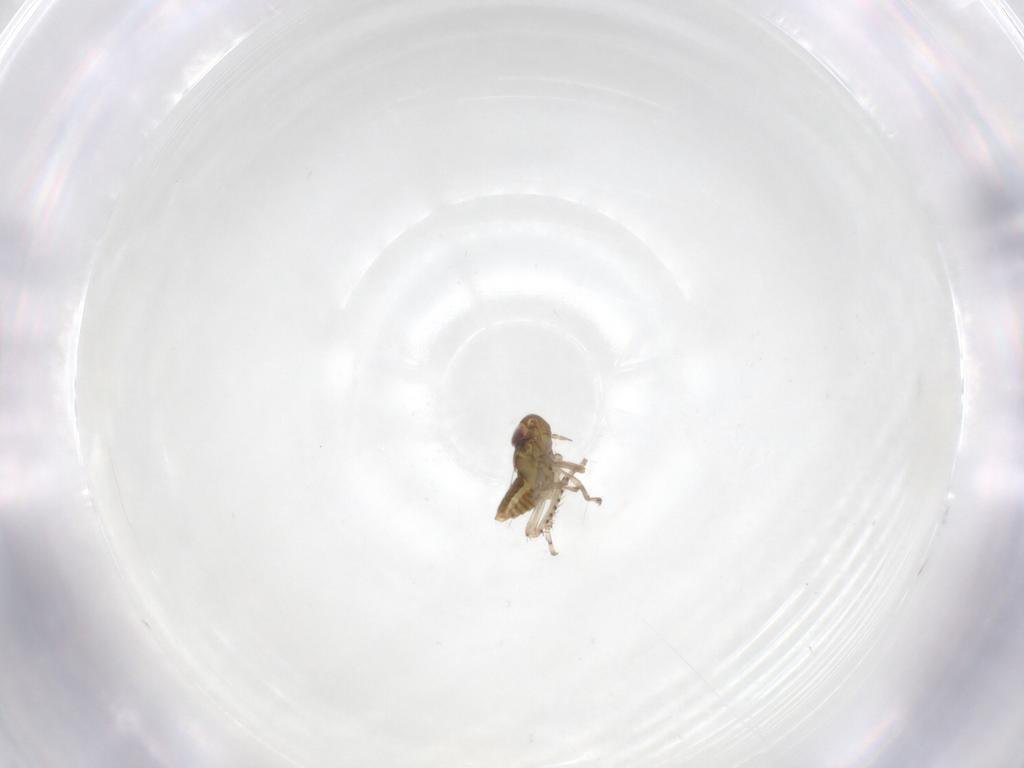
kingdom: Animalia
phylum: Arthropoda
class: Insecta
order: Hemiptera
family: Cicadellidae
